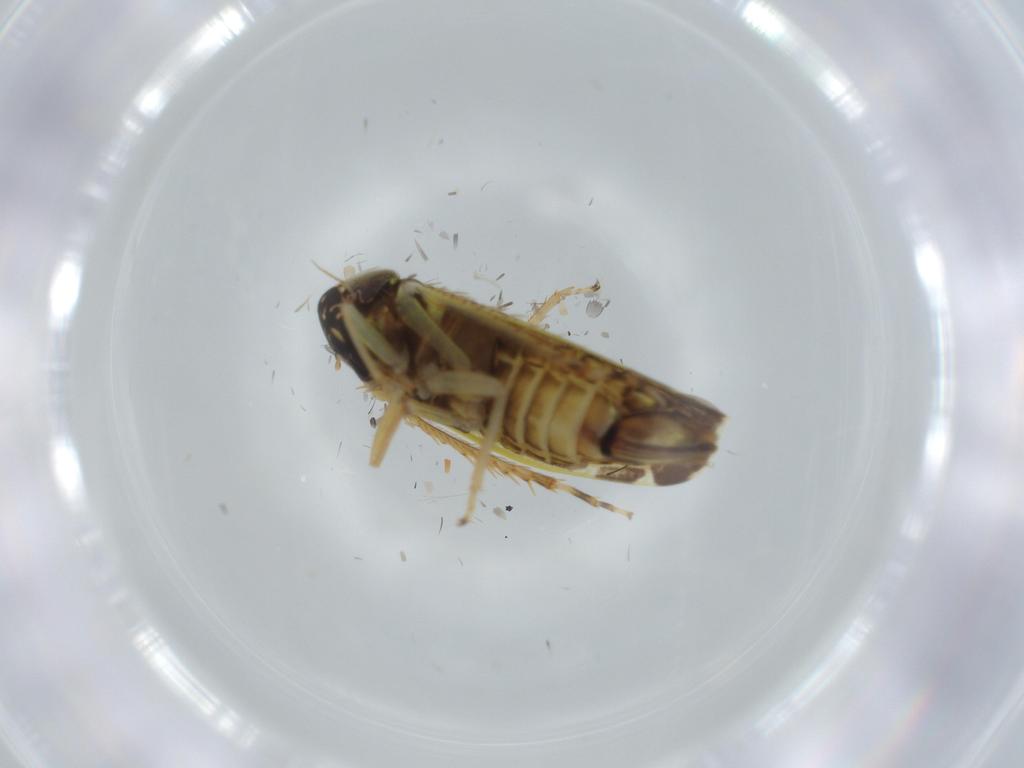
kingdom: Animalia
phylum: Arthropoda
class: Insecta
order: Hemiptera
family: Cicadellidae
